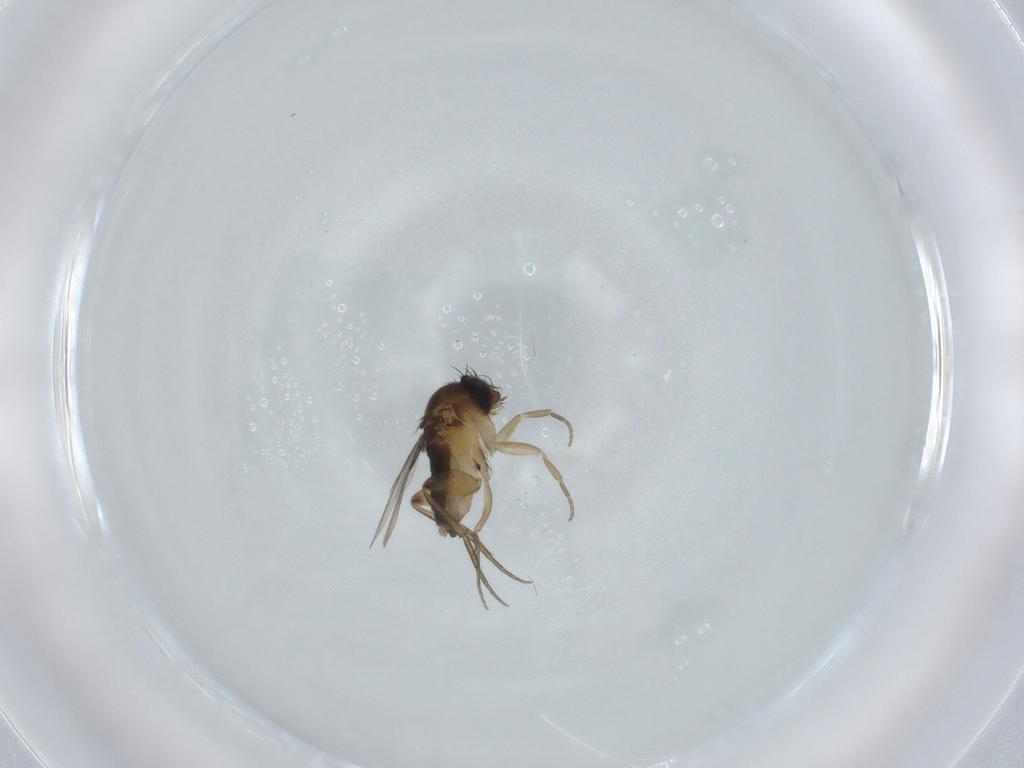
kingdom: Animalia
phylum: Arthropoda
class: Insecta
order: Diptera
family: Phoridae
